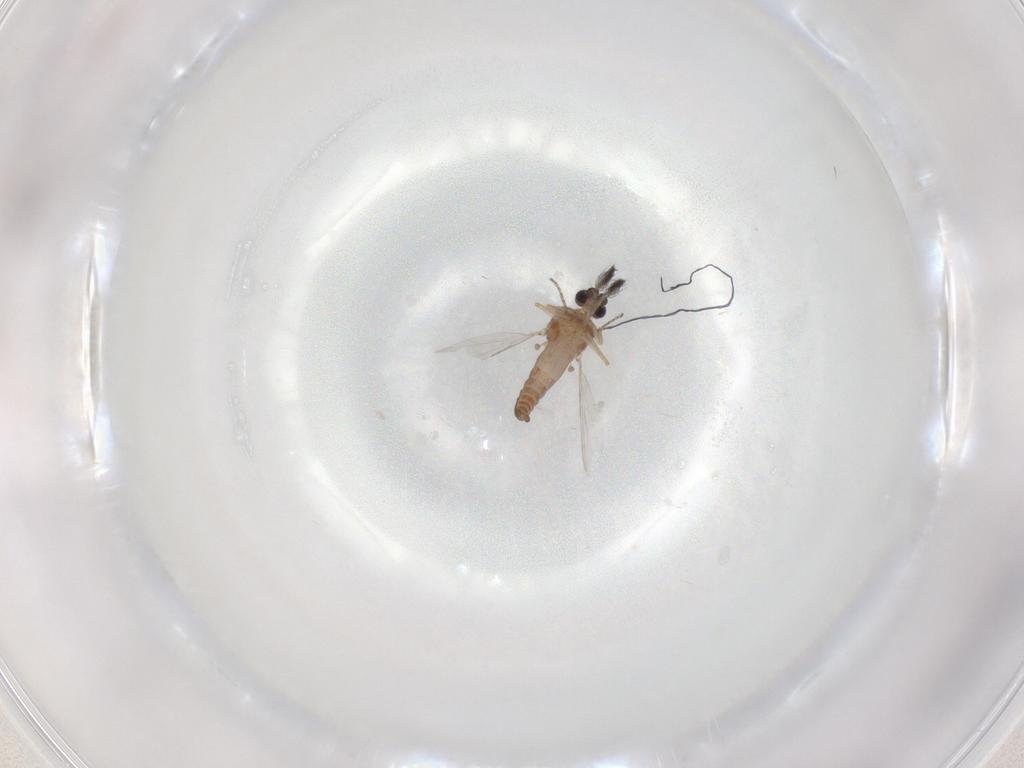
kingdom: Animalia
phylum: Arthropoda
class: Insecta
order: Diptera
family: Ceratopogonidae
